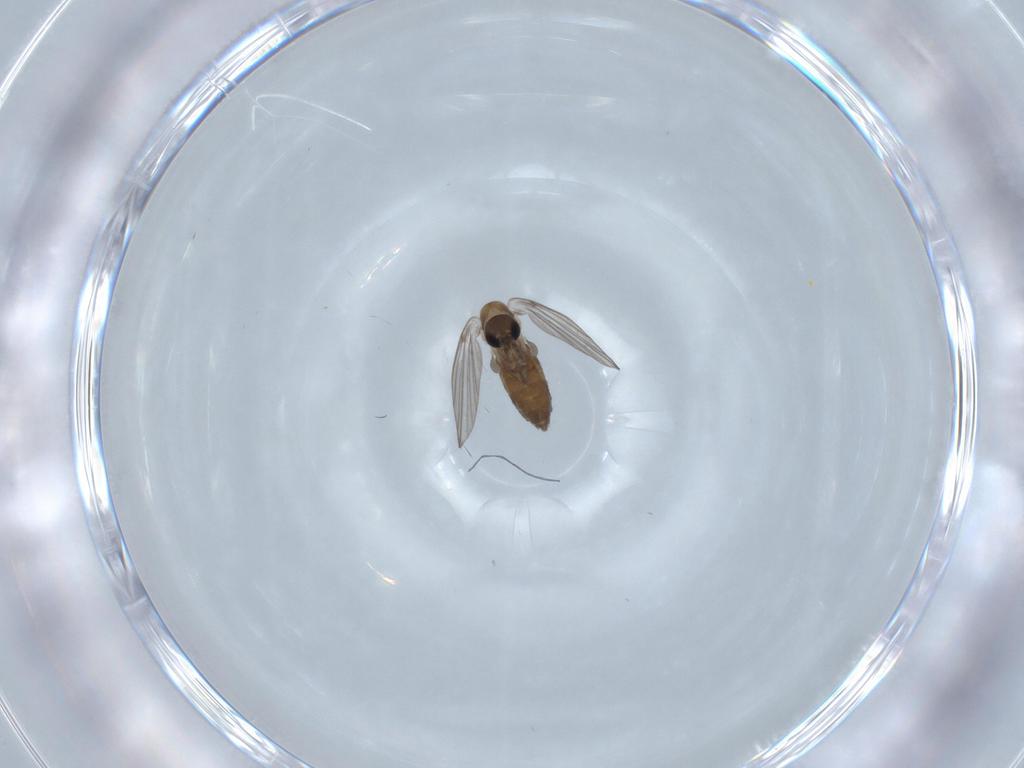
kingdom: Animalia
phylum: Arthropoda
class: Insecta
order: Diptera
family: Psychodidae
